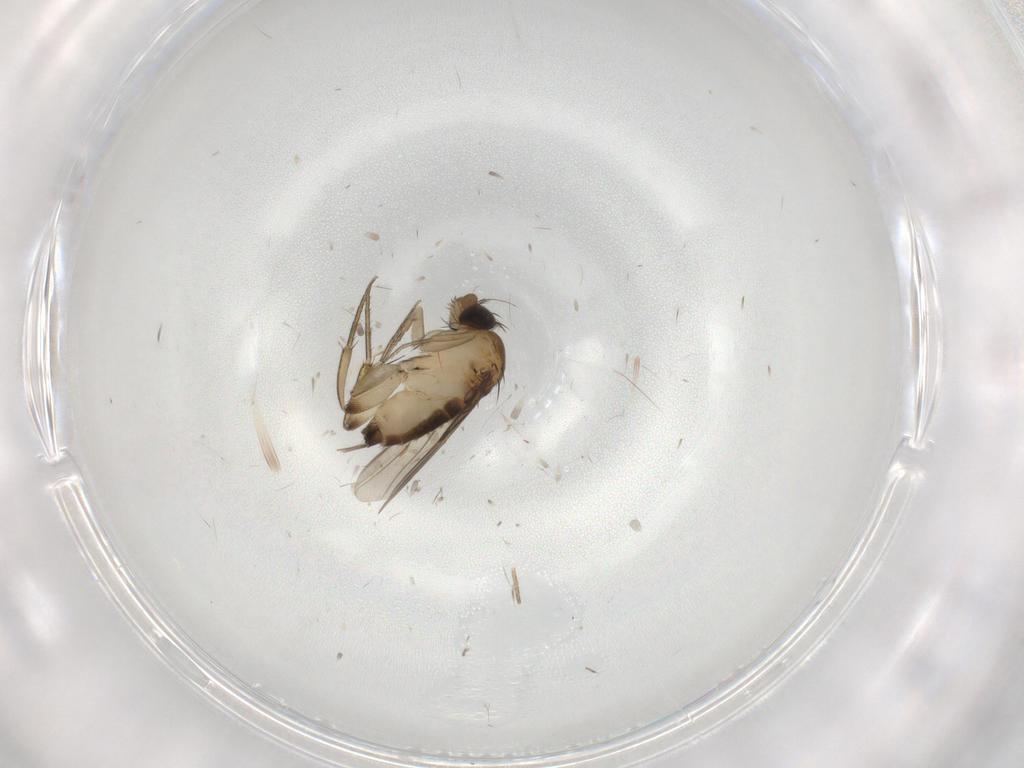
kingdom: Animalia
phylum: Arthropoda
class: Insecta
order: Diptera
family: Phoridae
